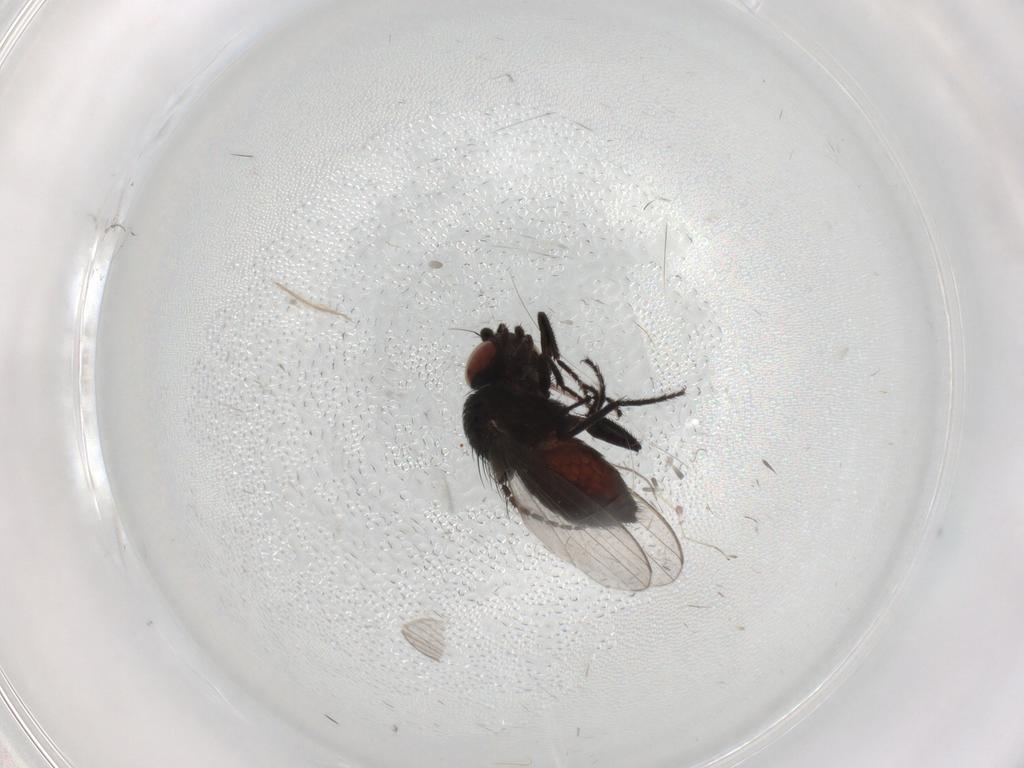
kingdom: Animalia
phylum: Arthropoda
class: Insecta
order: Diptera
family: Milichiidae
